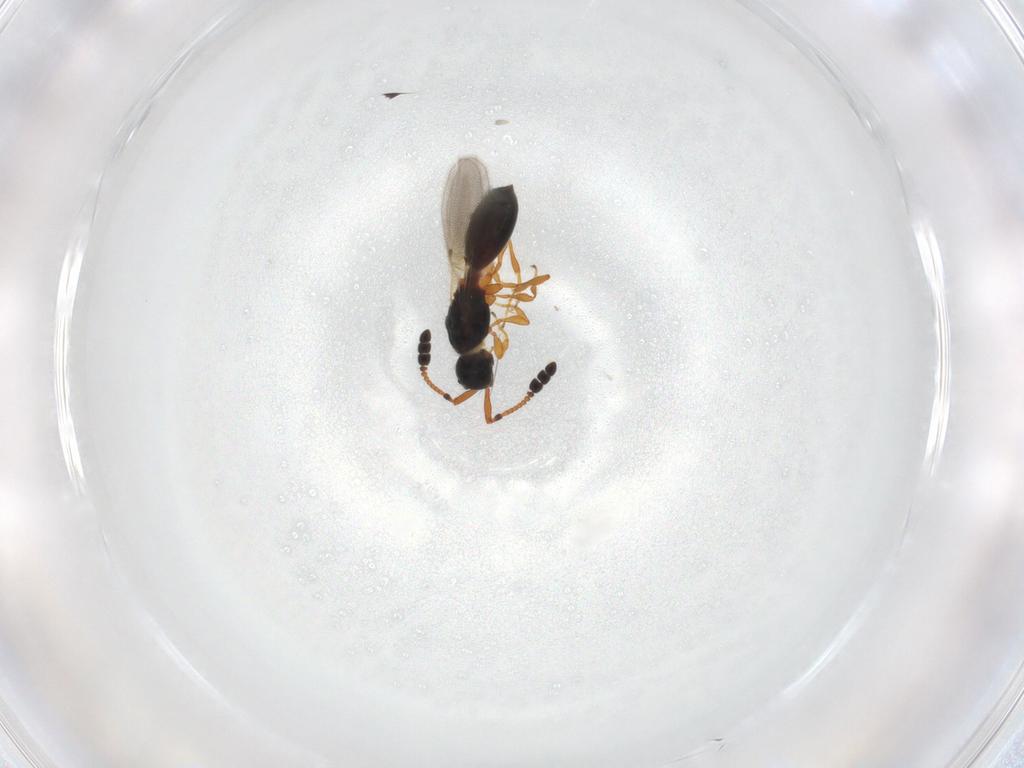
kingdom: Animalia
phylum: Arthropoda
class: Insecta
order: Hymenoptera
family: Diapriidae
